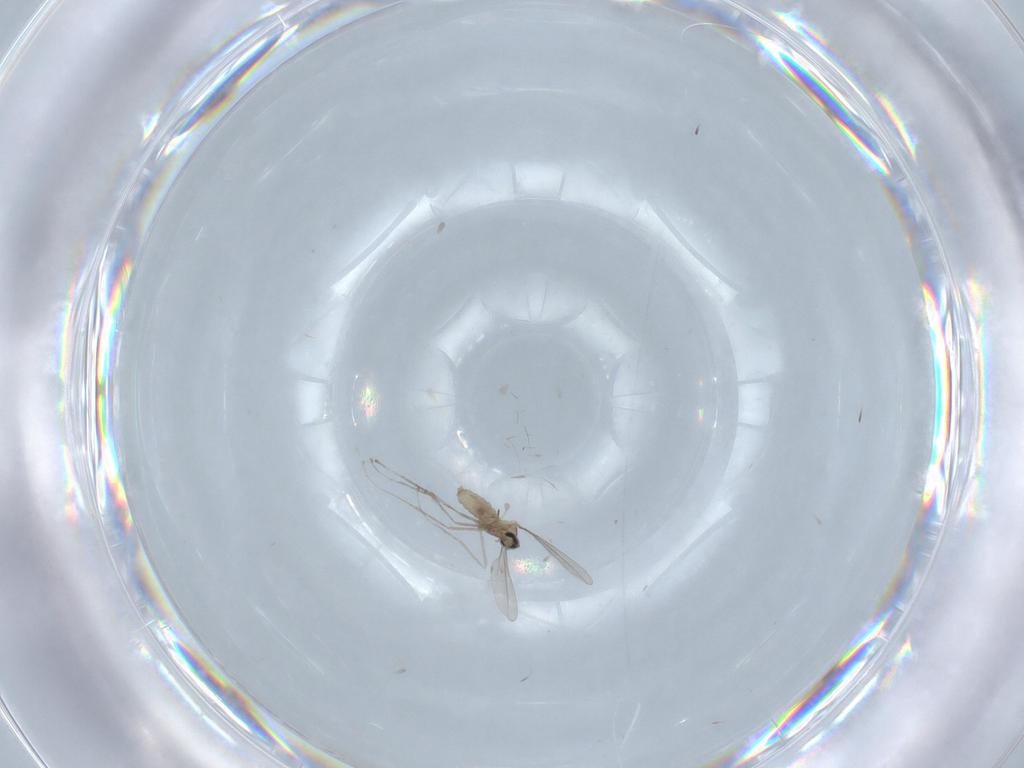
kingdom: Animalia
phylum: Arthropoda
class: Insecta
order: Diptera
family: Cecidomyiidae
